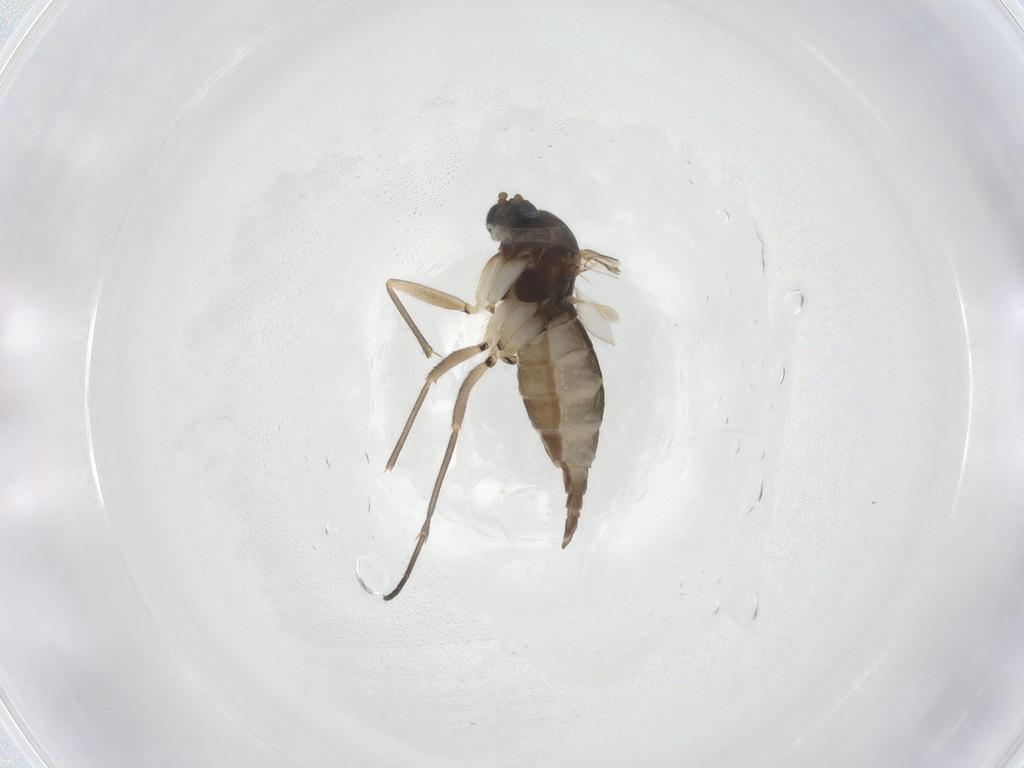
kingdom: Animalia
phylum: Arthropoda
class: Insecta
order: Diptera
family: Sciaridae
